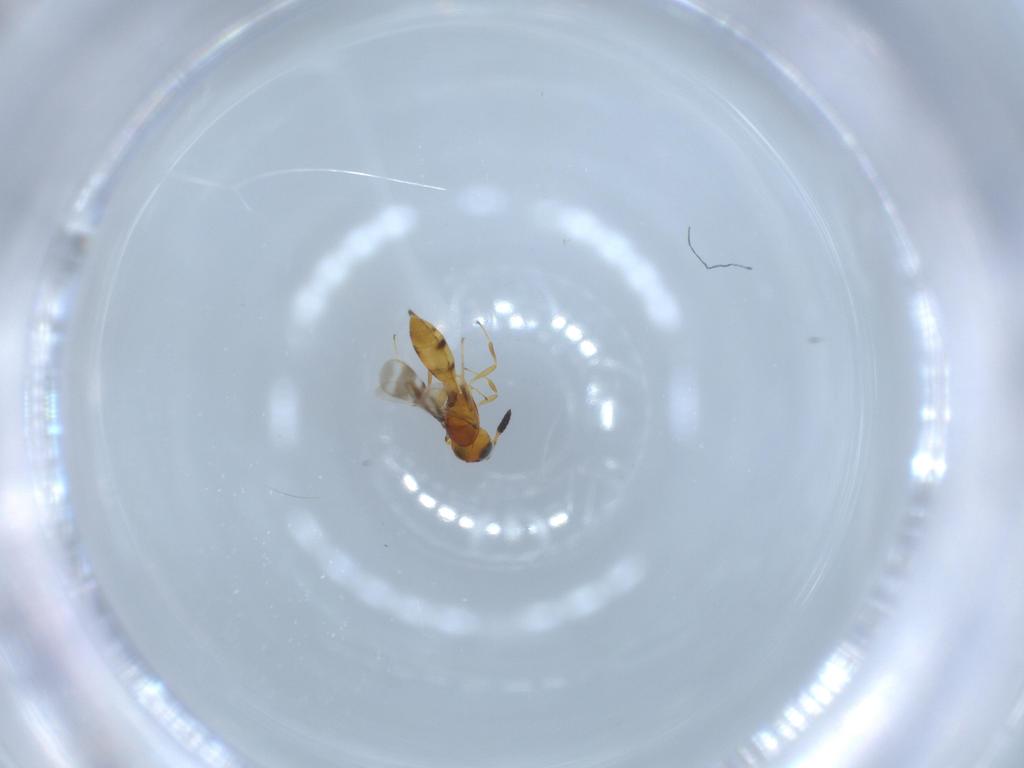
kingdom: Animalia
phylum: Arthropoda
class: Insecta
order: Hymenoptera
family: Scelionidae
